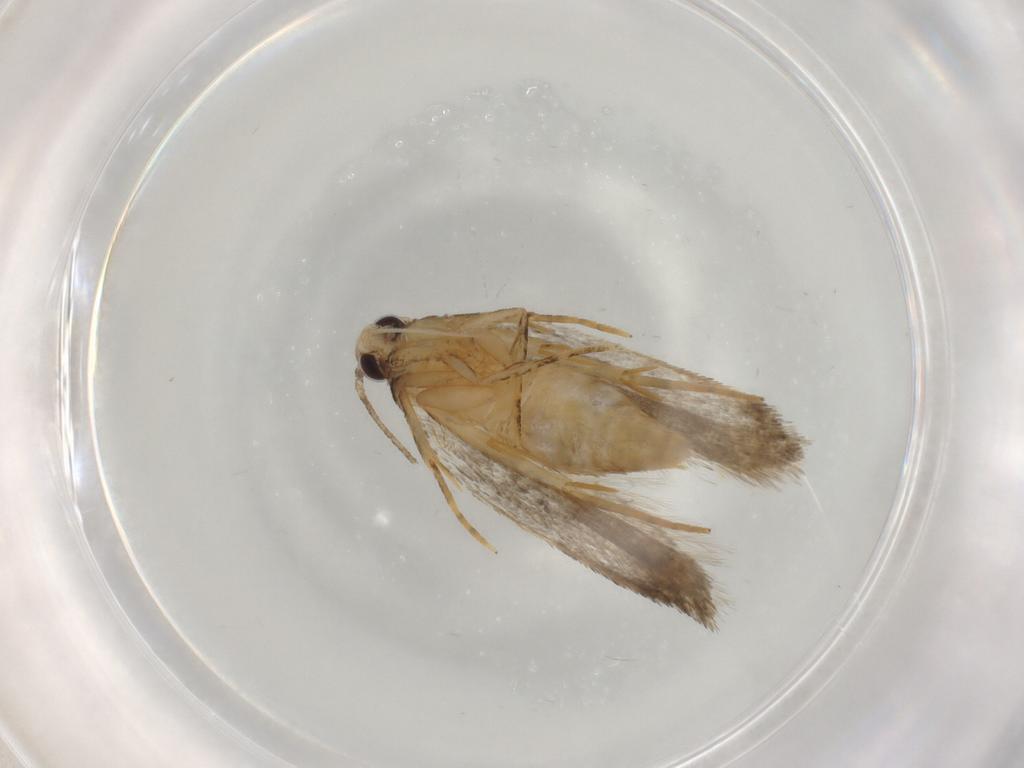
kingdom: Animalia
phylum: Arthropoda
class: Insecta
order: Lepidoptera
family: Autostichidae
